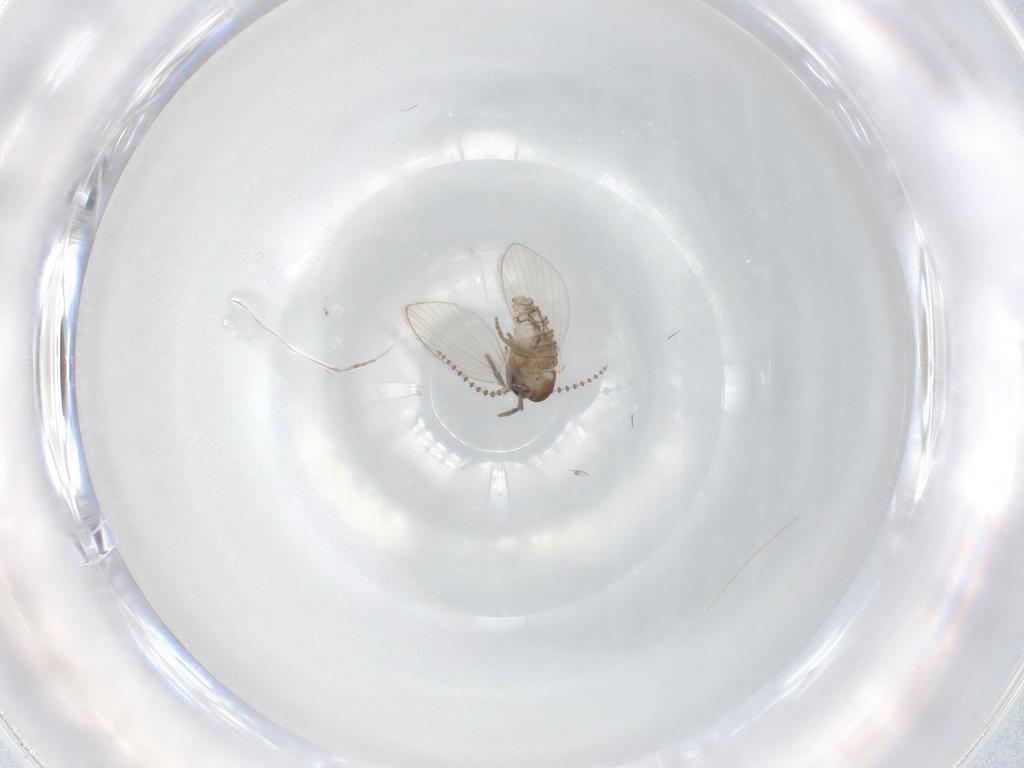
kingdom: Animalia
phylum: Arthropoda
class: Insecta
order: Diptera
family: Psychodidae
